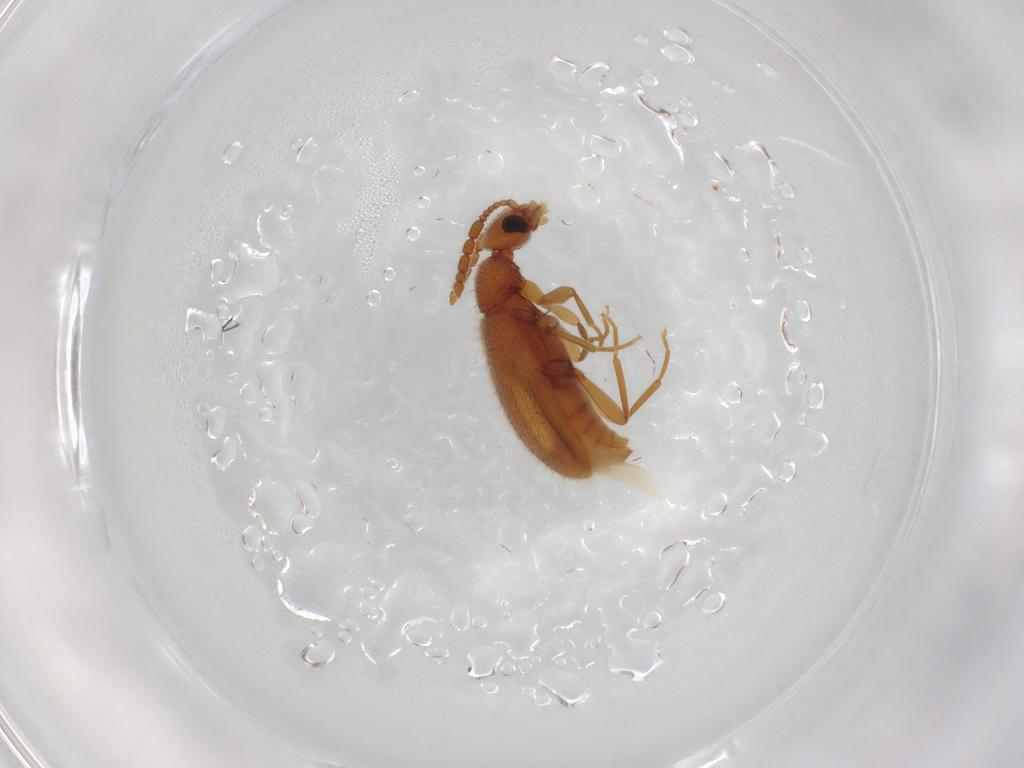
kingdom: Animalia
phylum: Arthropoda
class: Insecta
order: Coleoptera
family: Anthicidae
